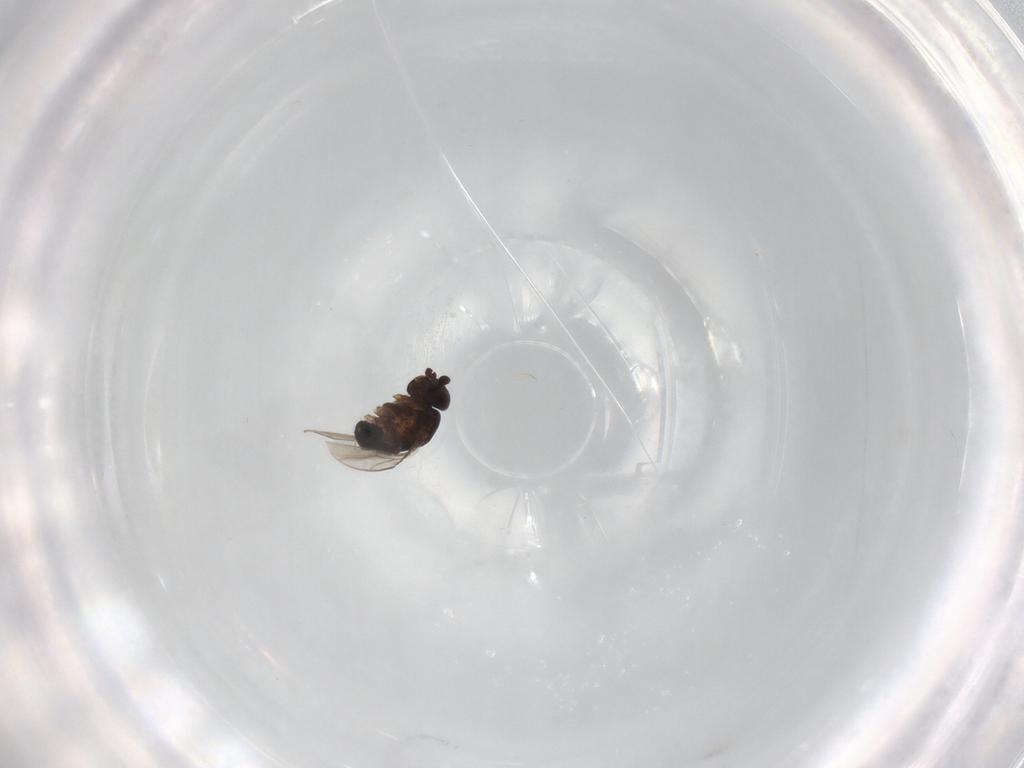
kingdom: Animalia
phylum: Arthropoda
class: Insecta
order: Diptera
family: Sphaeroceridae
